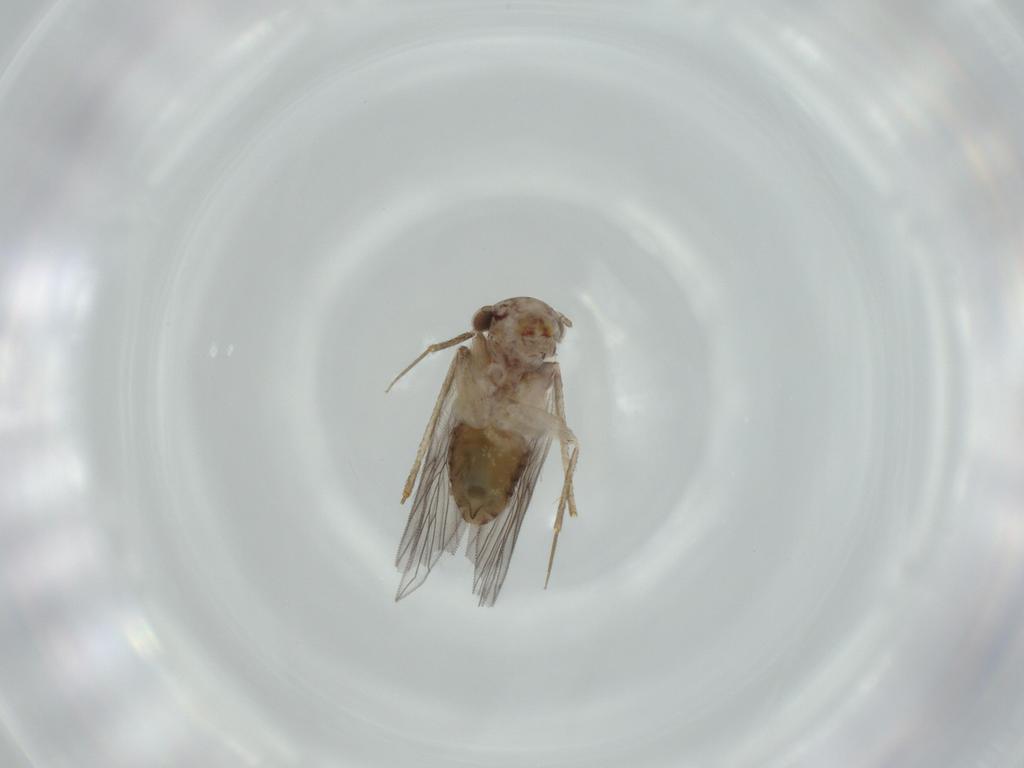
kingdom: Animalia
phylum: Arthropoda
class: Insecta
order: Psocodea
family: Lepidopsocidae
